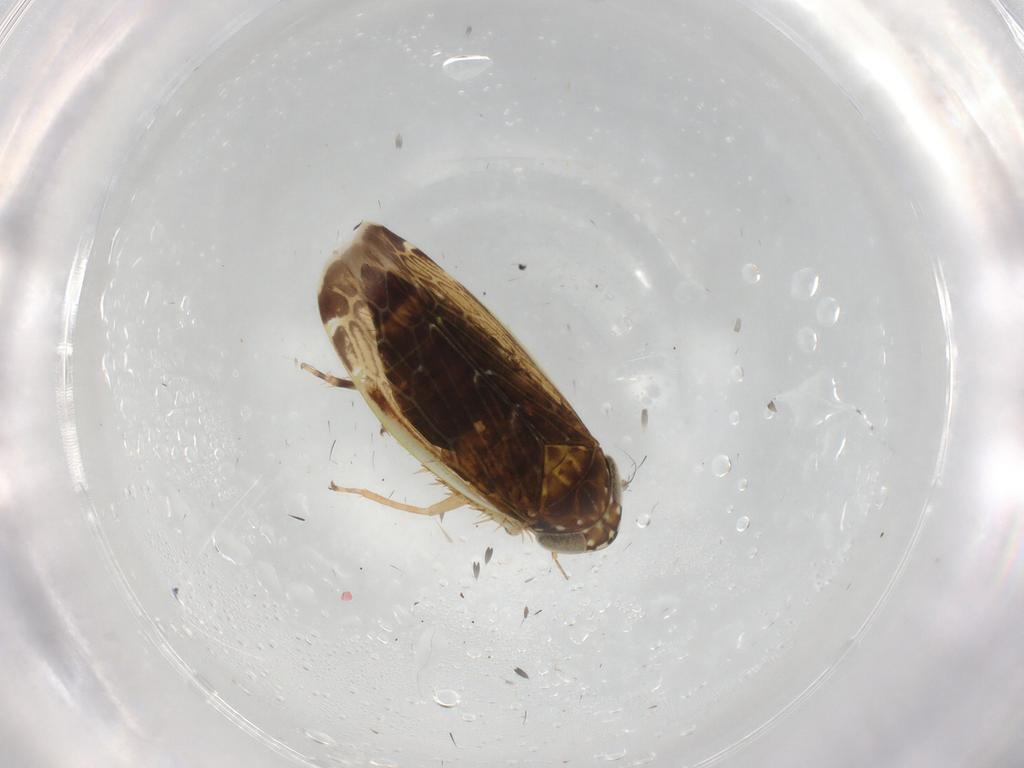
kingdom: Animalia
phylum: Arthropoda
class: Insecta
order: Hemiptera
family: Cicadellidae
